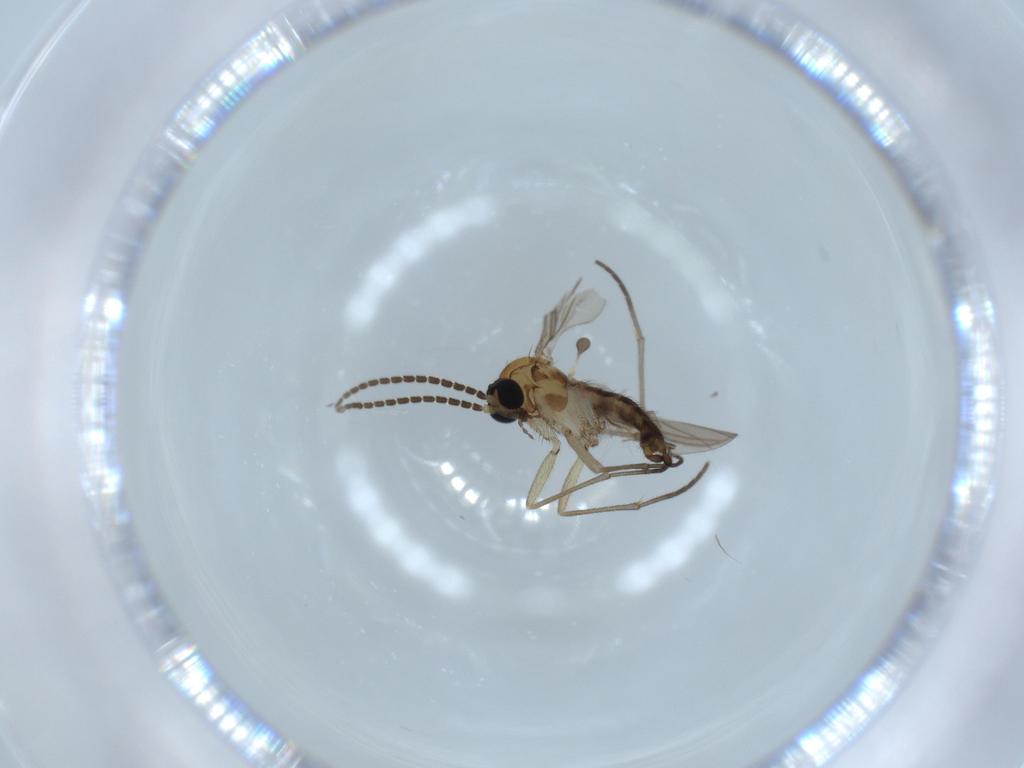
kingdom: Animalia
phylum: Arthropoda
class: Insecta
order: Diptera
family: Sciaridae
